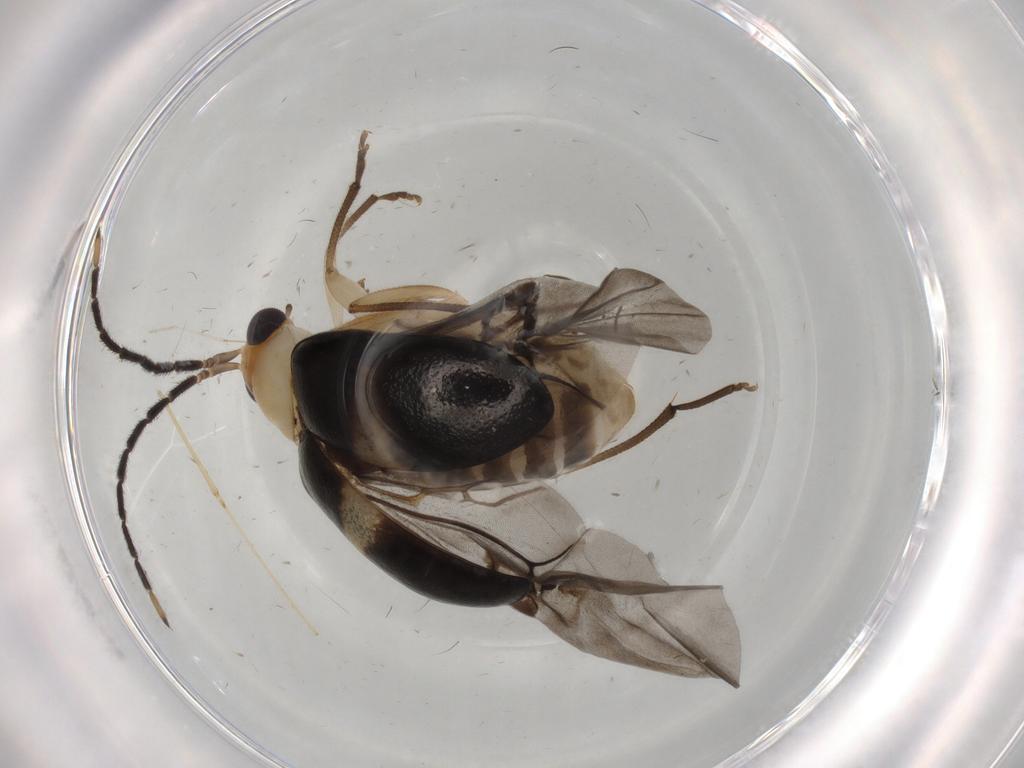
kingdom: Animalia
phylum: Arthropoda
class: Insecta
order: Coleoptera
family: Chrysomelidae
